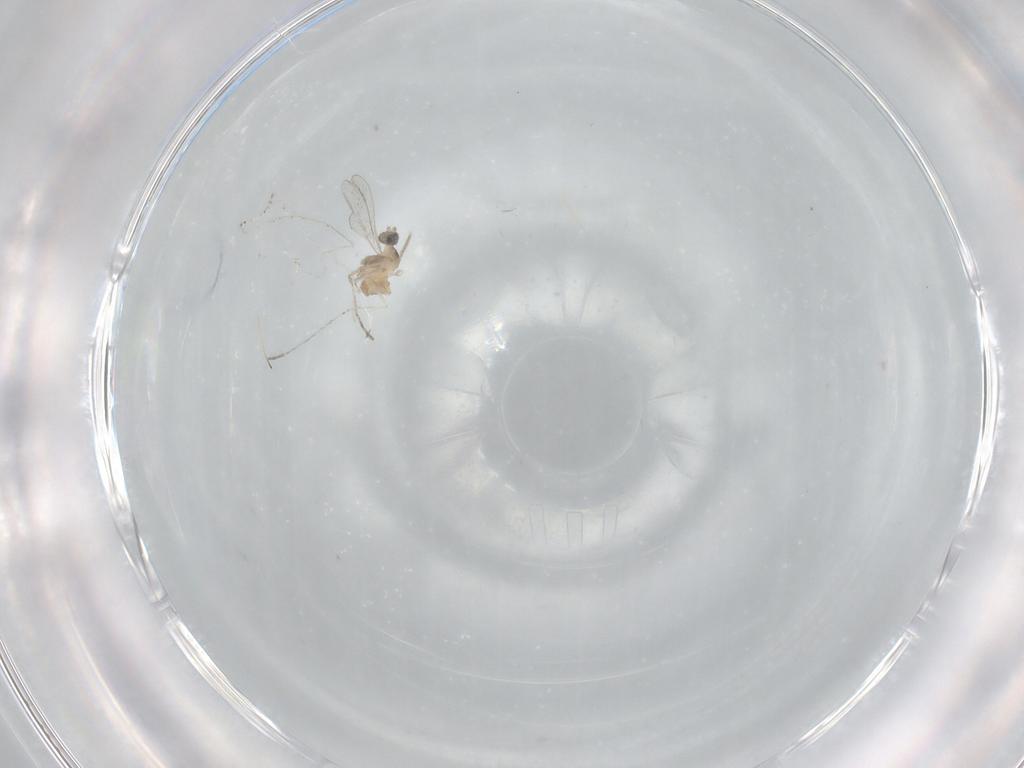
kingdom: Animalia
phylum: Arthropoda
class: Insecta
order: Diptera
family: Cecidomyiidae
